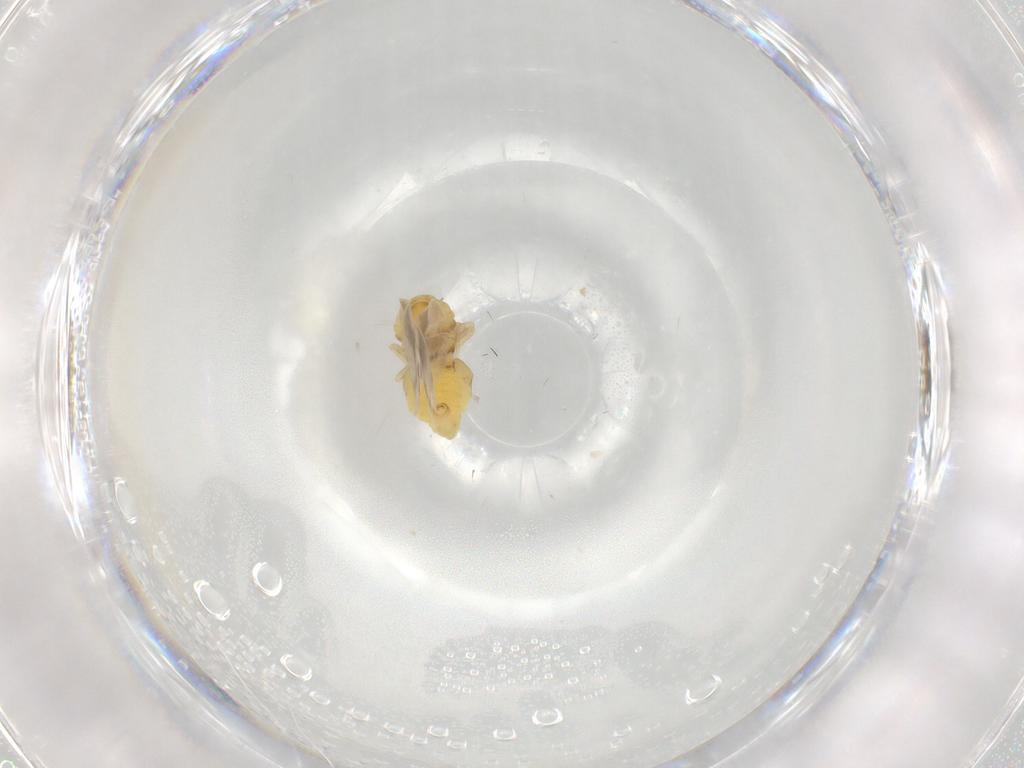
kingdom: Animalia
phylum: Arthropoda
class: Insecta
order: Hemiptera
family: Aleyrodidae
